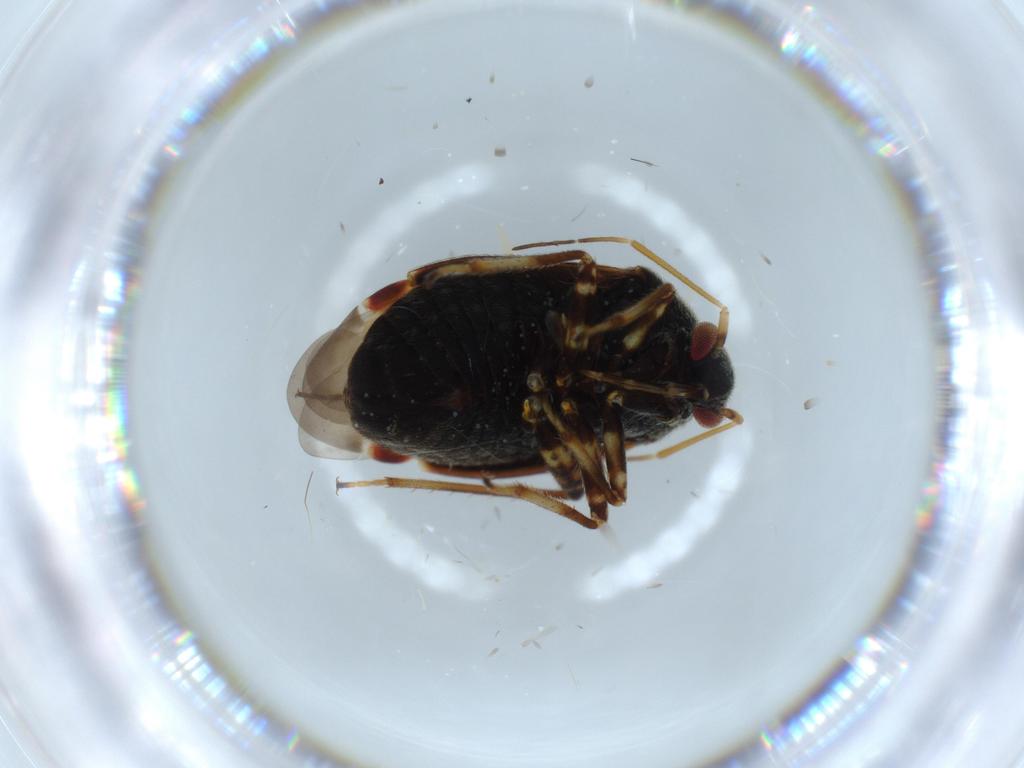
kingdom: Animalia
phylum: Arthropoda
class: Insecta
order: Hemiptera
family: Miridae
